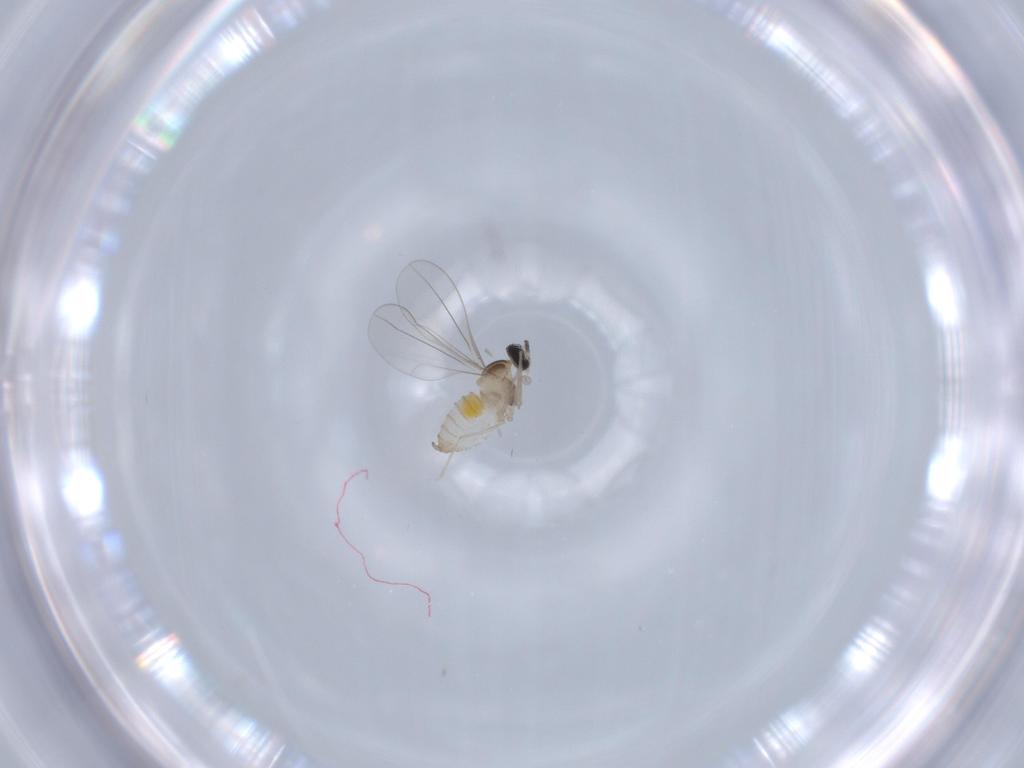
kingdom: Animalia
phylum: Arthropoda
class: Insecta
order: Diptera
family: Cecidomyiidae
